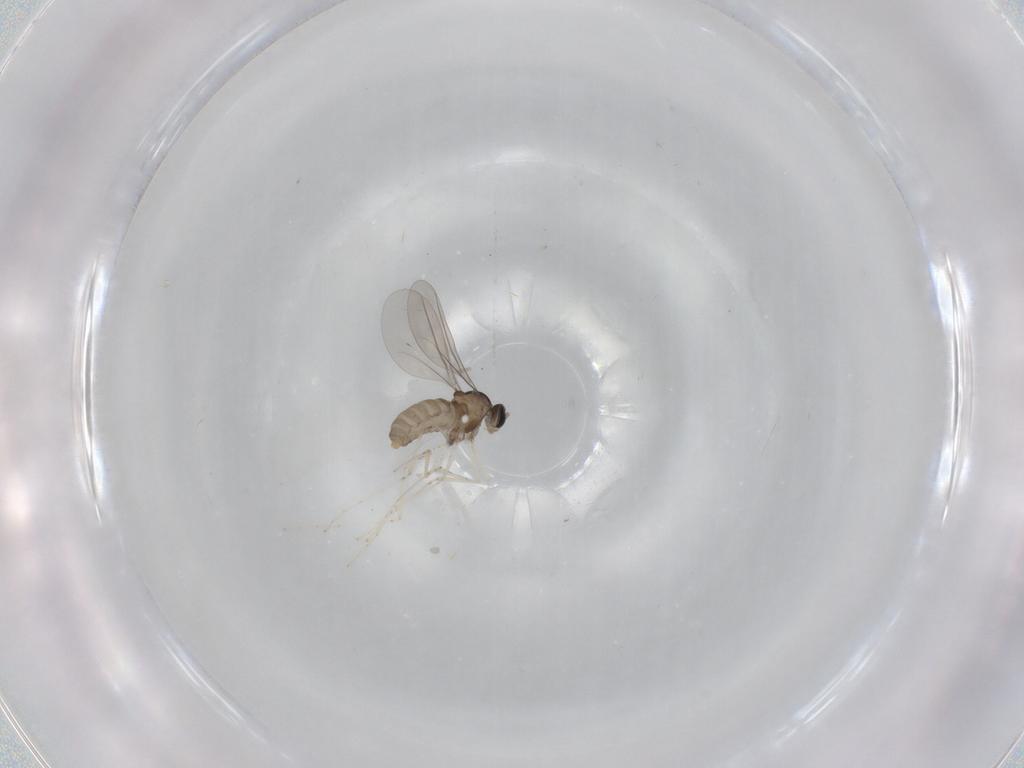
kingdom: Animalia
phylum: Arthropoda
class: Insecta
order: Diptera
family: Cecidomyiidae
